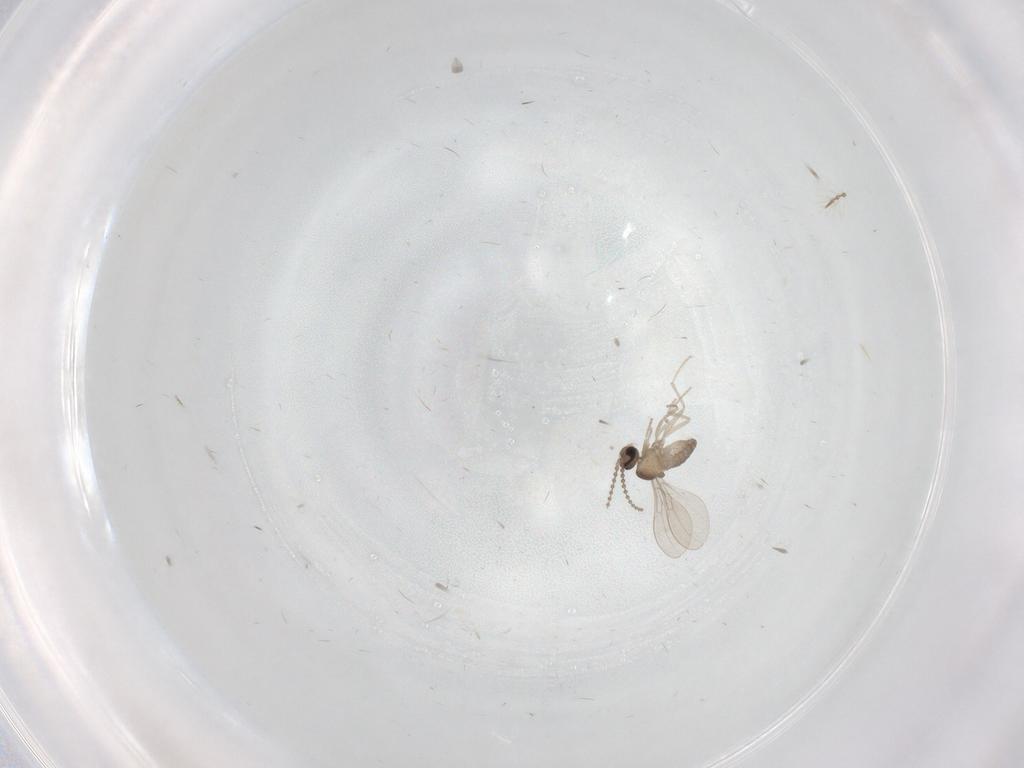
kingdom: Animalia
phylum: Arthropoda
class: Insecta
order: Diptera
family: Cecidomyiidae
